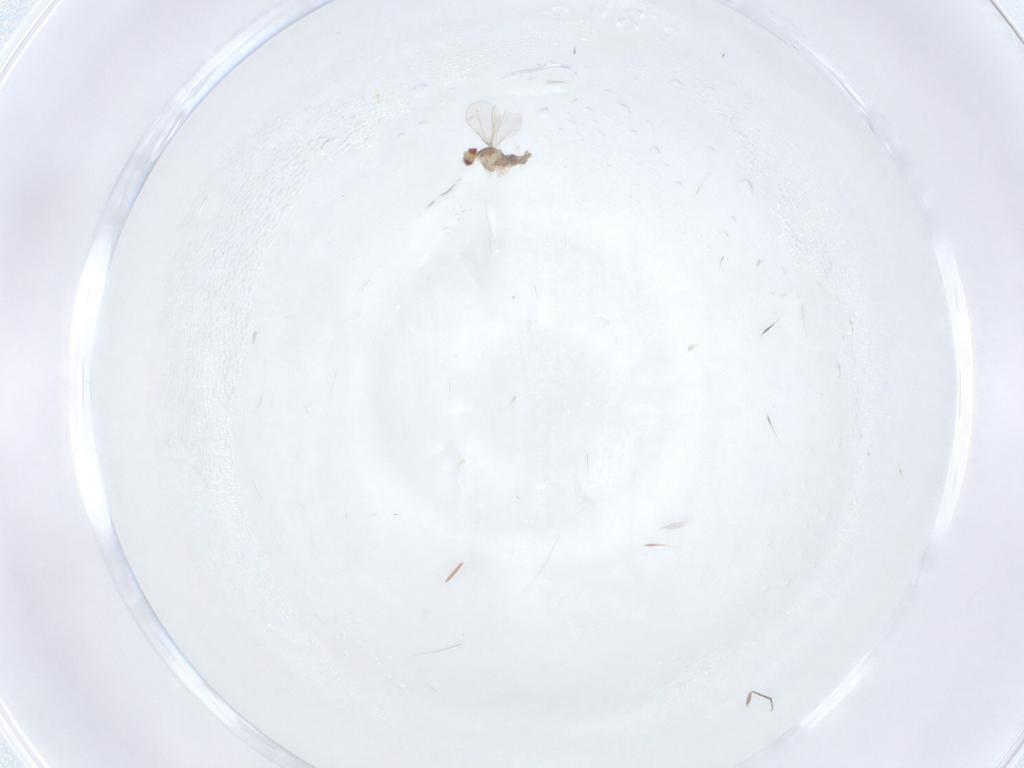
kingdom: Animalia
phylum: Arthropoda
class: Insecta
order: Diptera
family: Cecidomyiidae
